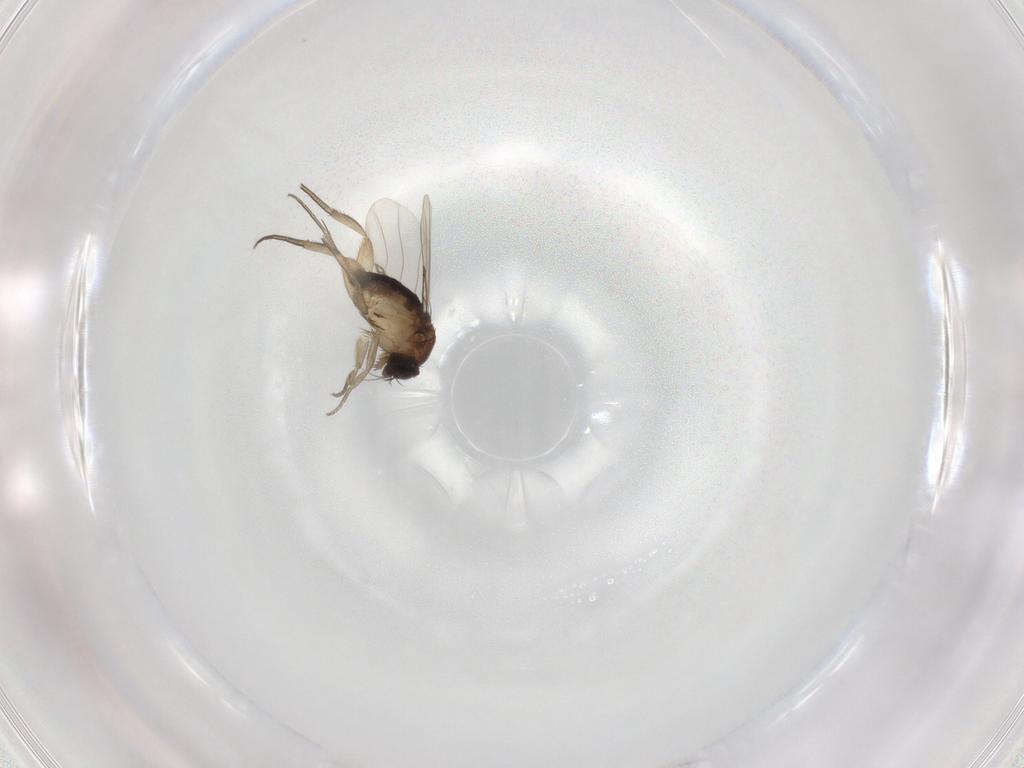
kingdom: Animalia
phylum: Arthropoda
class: Insecta
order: Diptera
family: Phoridae
